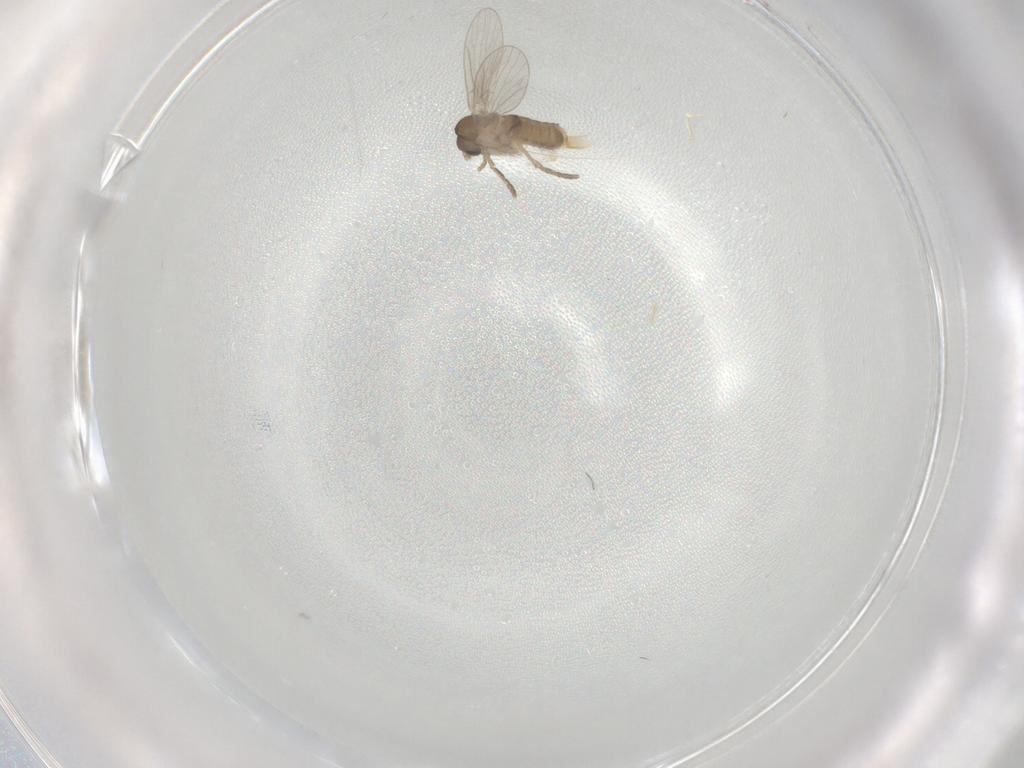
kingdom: Animalia
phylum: Arthropoda
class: Insecta
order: Diptera
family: Psychodidae
